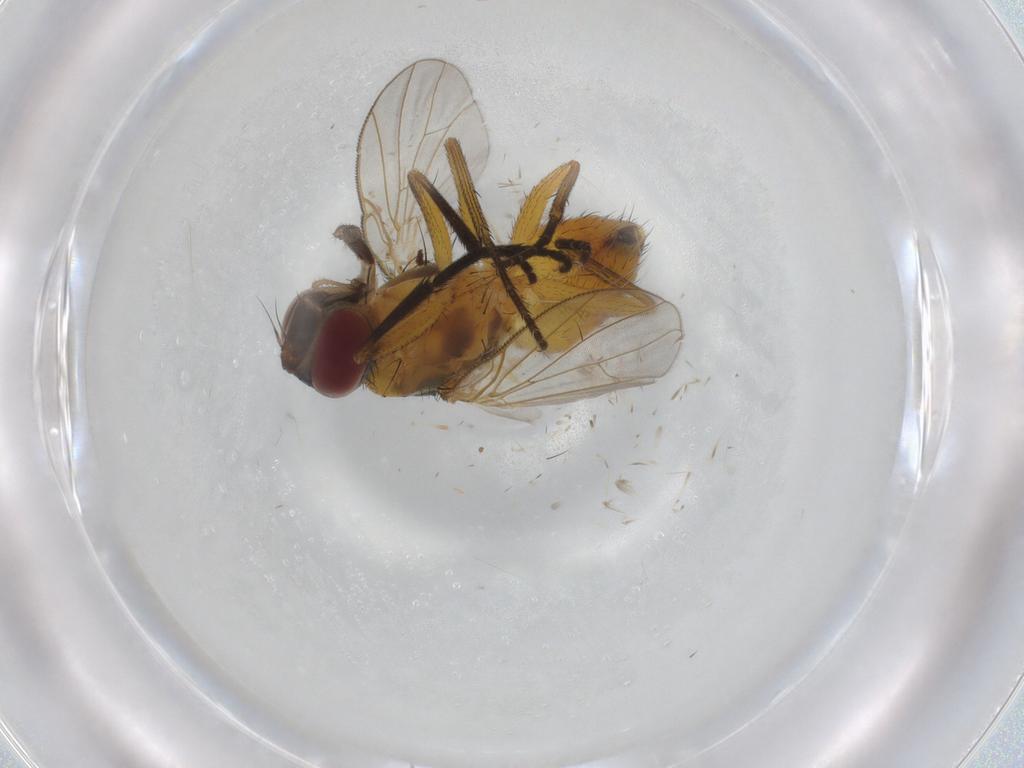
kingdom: Animalia
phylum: Arthropoda
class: Insecta
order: Diptera
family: Muscidae
